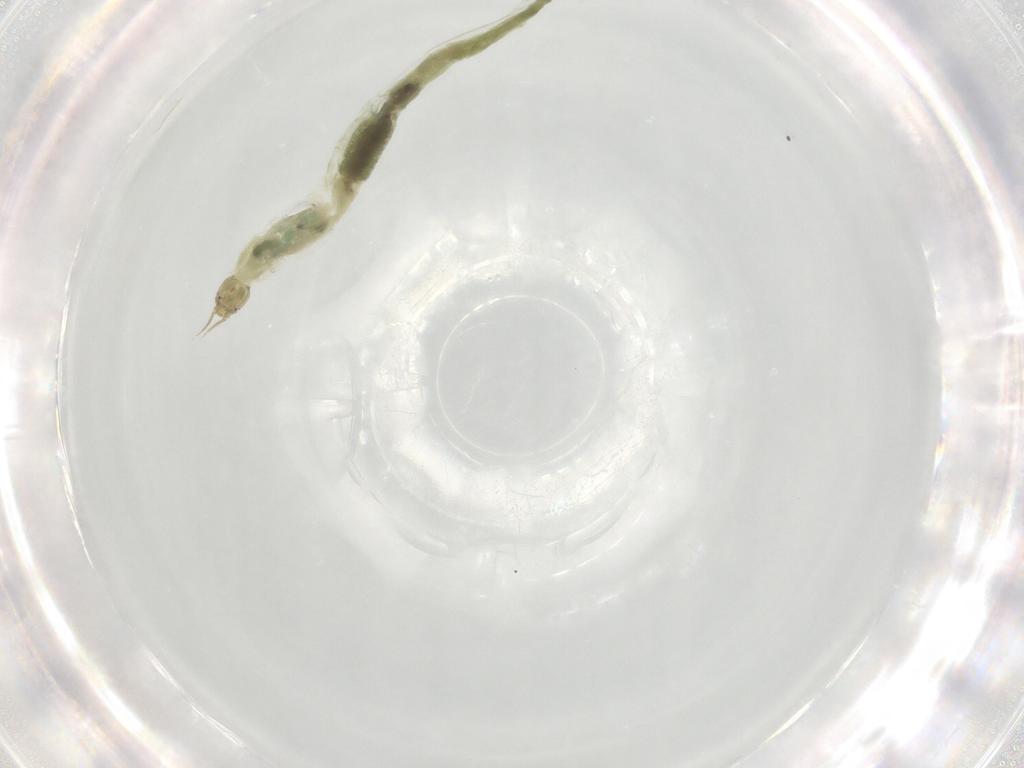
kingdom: Animalia
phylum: Arthropoda
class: Insecta
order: Diptera
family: Chironomidae
